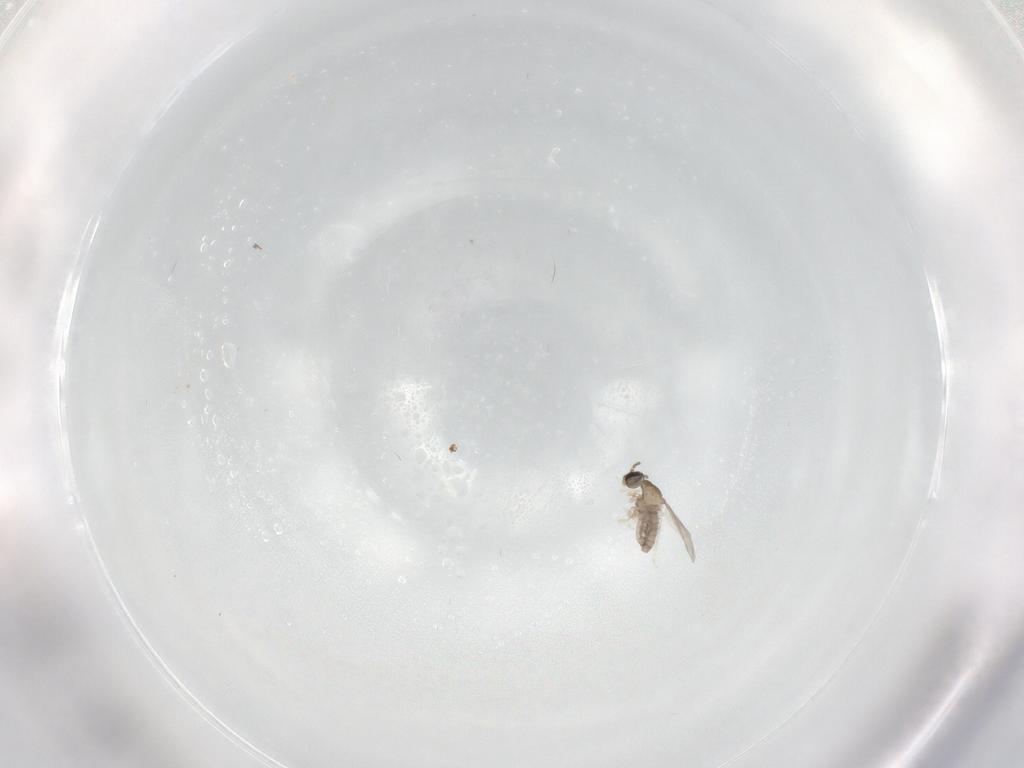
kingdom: Animalia
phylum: Arthropoda
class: Insecta
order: Diptera
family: Cecidomyiidae
